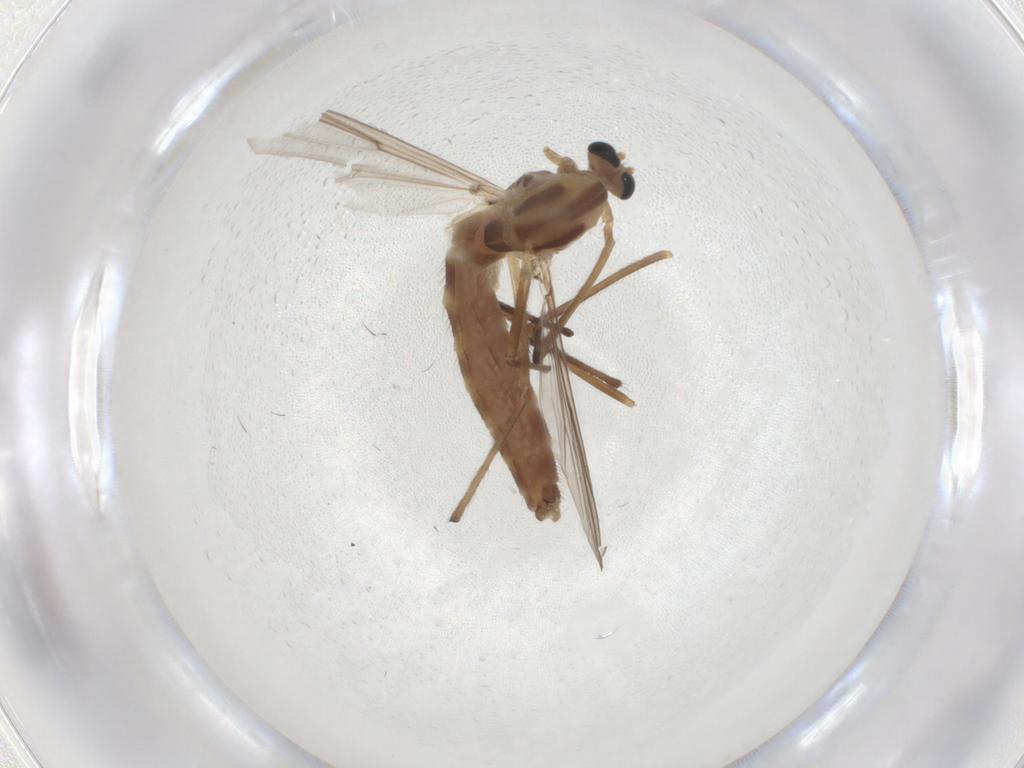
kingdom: Animalia
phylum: Arthropoda
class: Insecta
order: Diptera
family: Chironomidae
